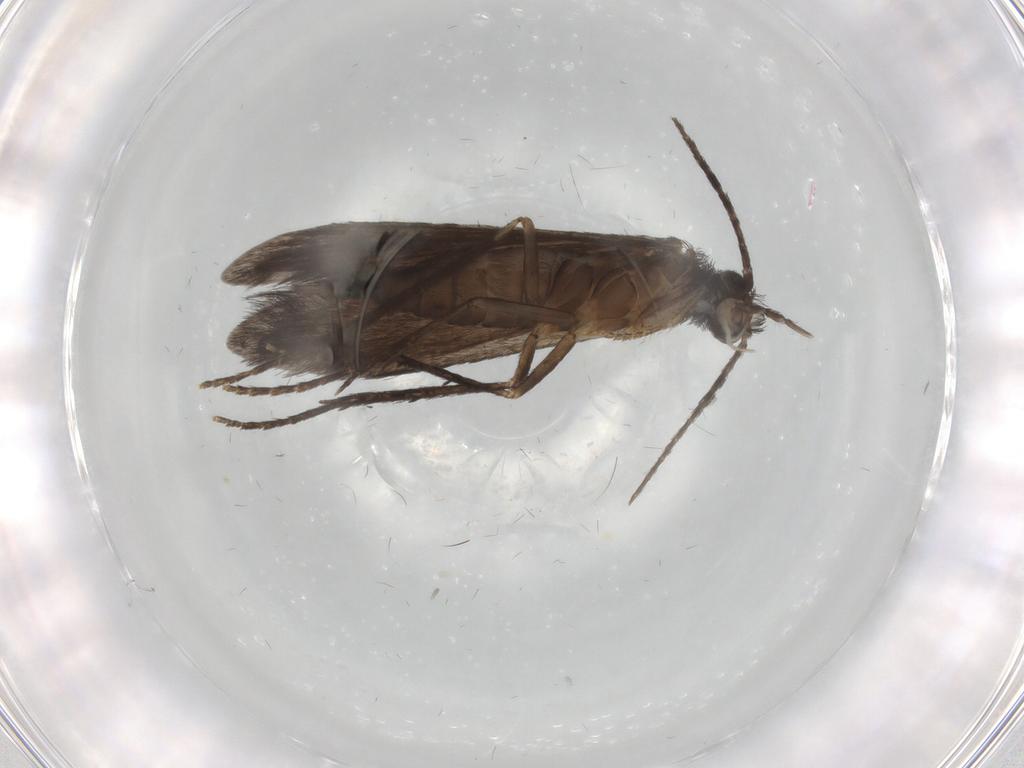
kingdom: Animalia
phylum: Arthropoda
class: Insecta
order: Trichoptera
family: Xiphocentronidae
